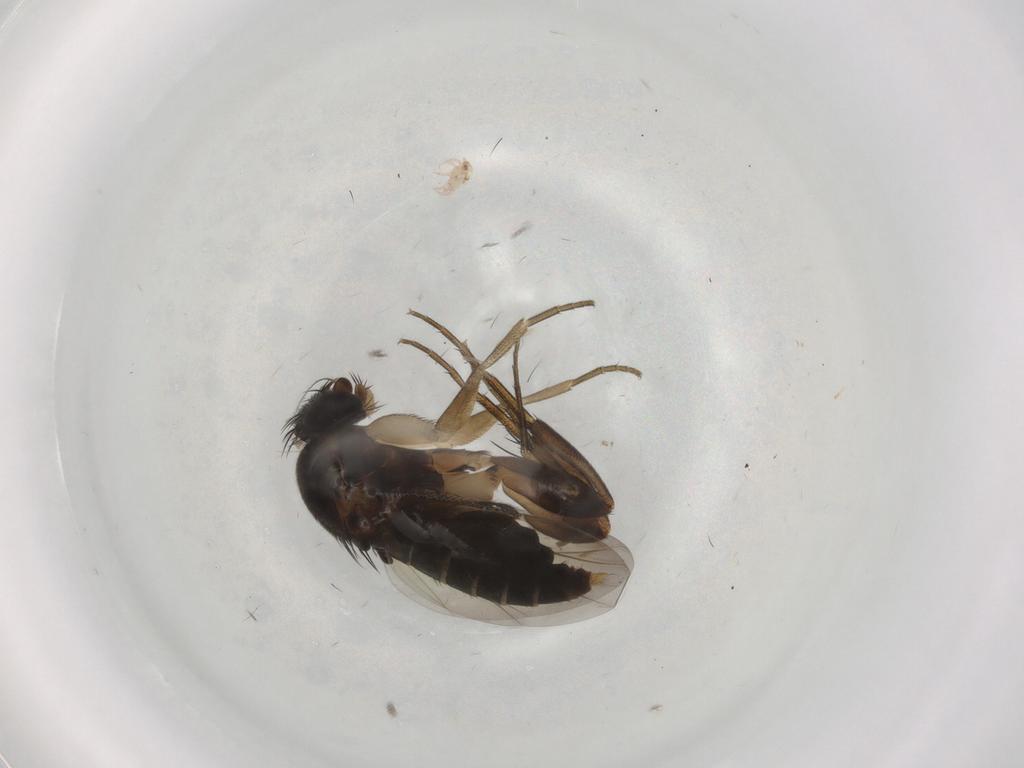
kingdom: Animalia
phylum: Arthropoda
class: Insecta
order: Diptera
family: Phoridae
